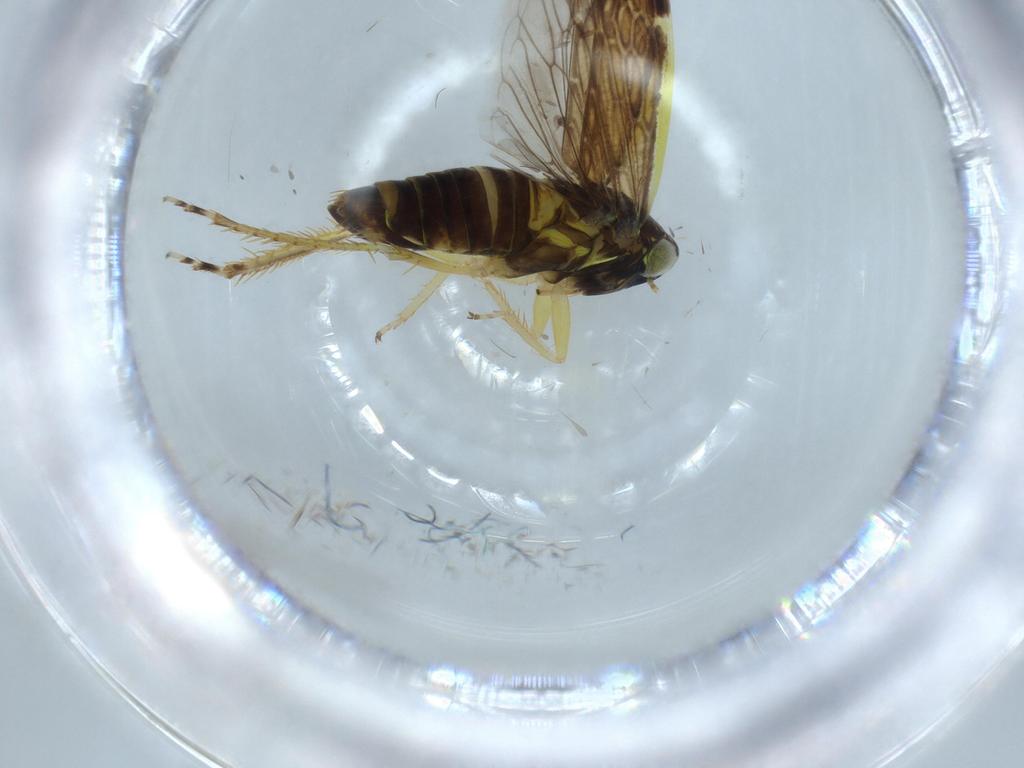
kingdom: Animalia
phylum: Arthropoda
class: Insecta
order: Hemiptera
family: Cicadellidae
